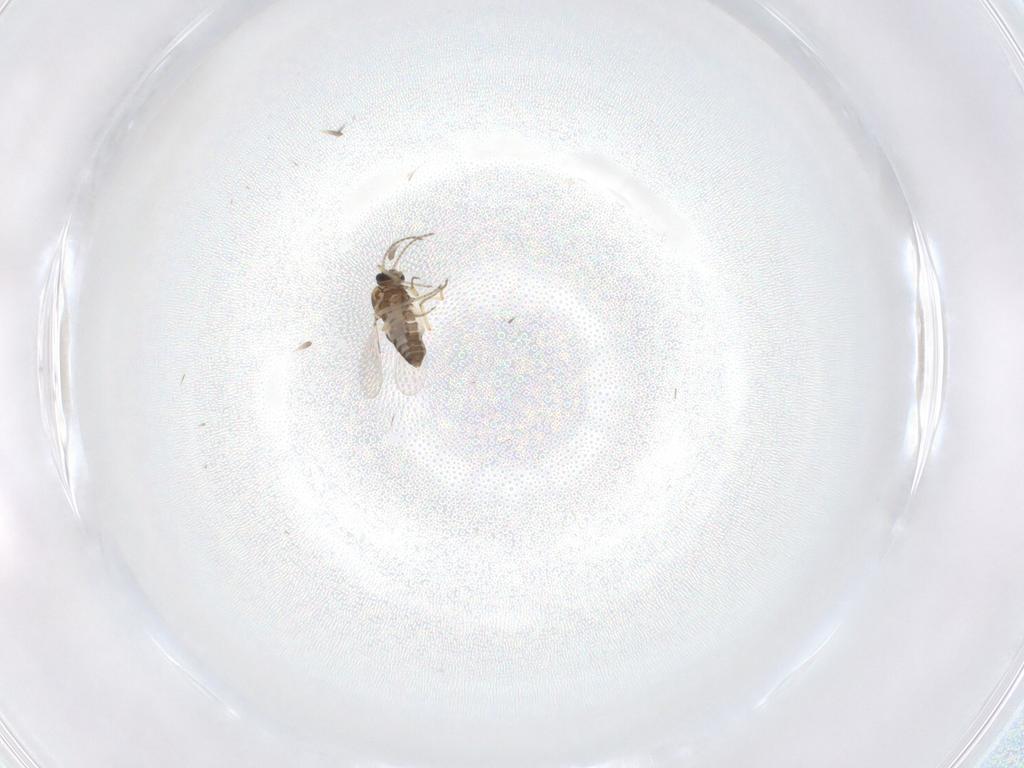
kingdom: Animalia
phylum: Arthropoda
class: Insecta
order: Diptera
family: Ceratopogonidae
